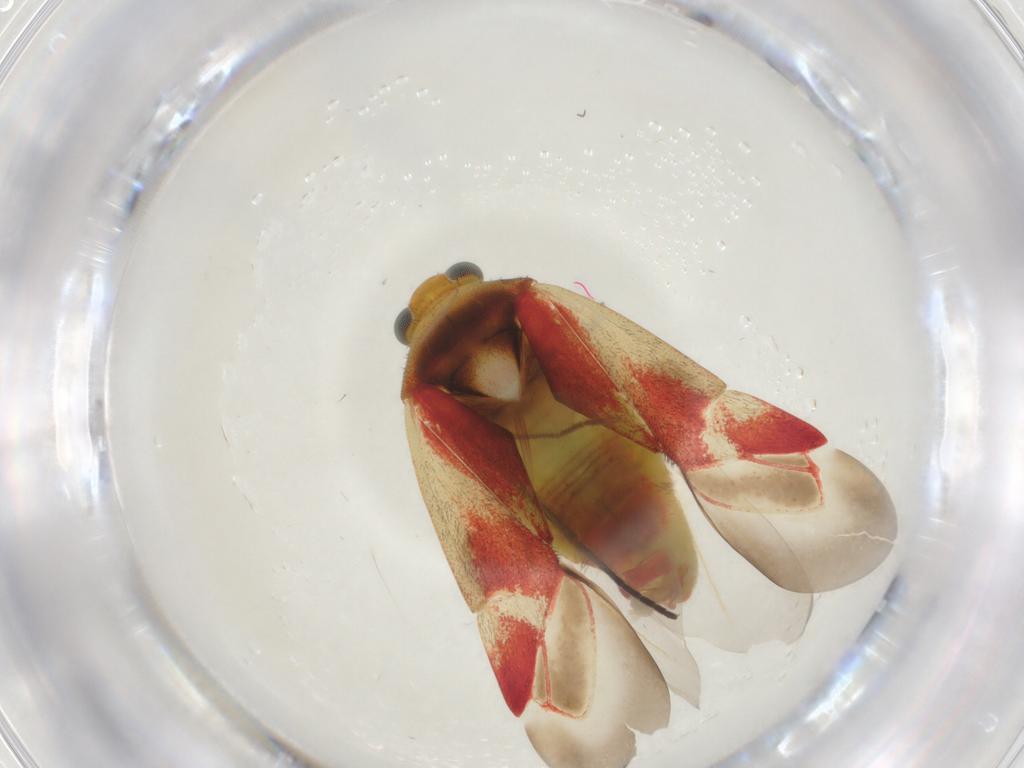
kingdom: Animalia
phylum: Arthropoda
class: Insecta
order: Hemiptera
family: Miridae
